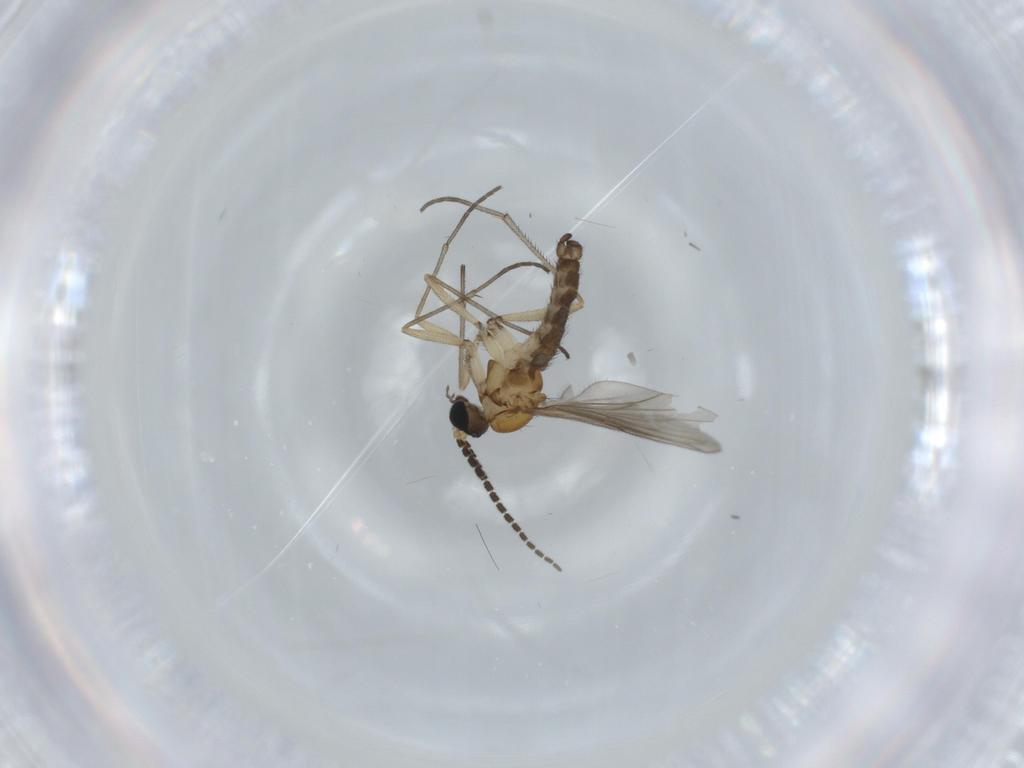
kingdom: Animalia
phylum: Arthropoda
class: Insecta
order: Diptera
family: Sciaridae
